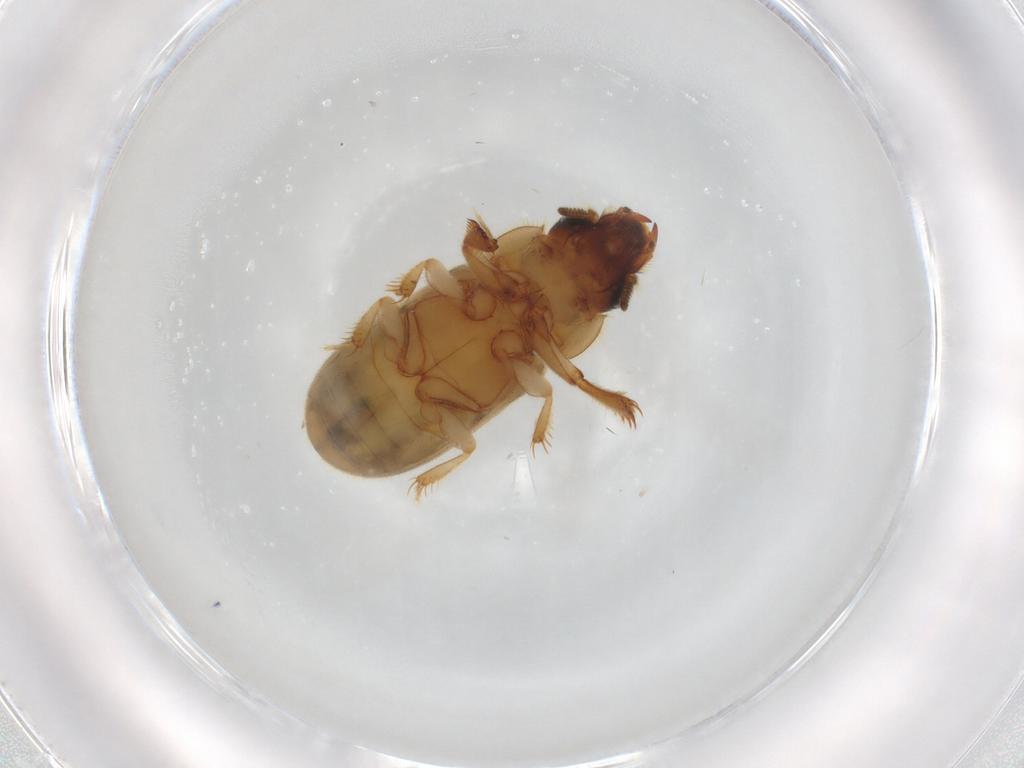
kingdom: Animalia
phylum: Arthropoda
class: Insecta
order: Coleoptera
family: Heteroceridae
